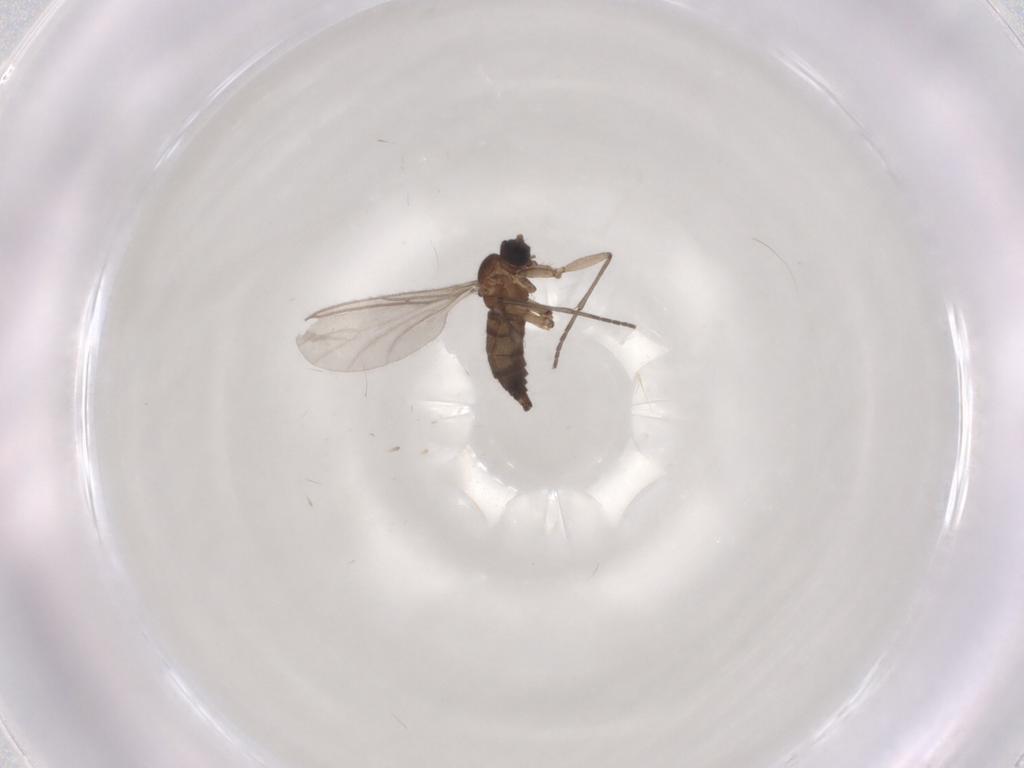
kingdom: Animalia
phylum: Arthropoda
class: Insecta
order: Diptera
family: Sciaridae
